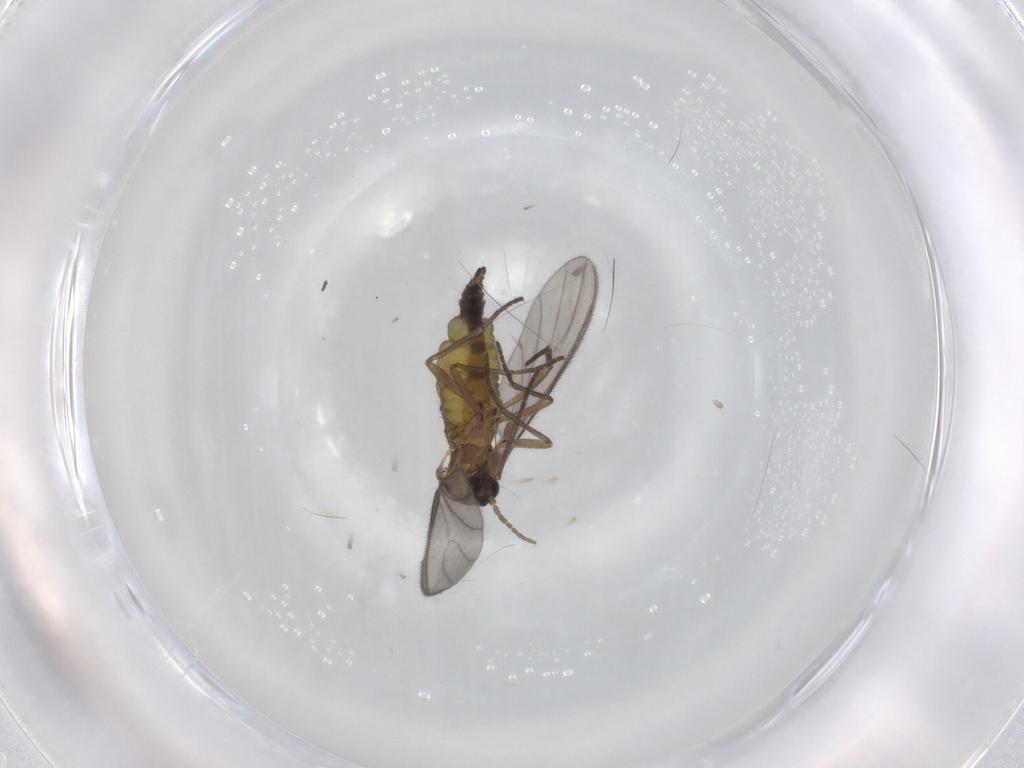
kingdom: Animalia
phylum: Arthropoda
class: Insecta
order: Diptera
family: Sciaridae
